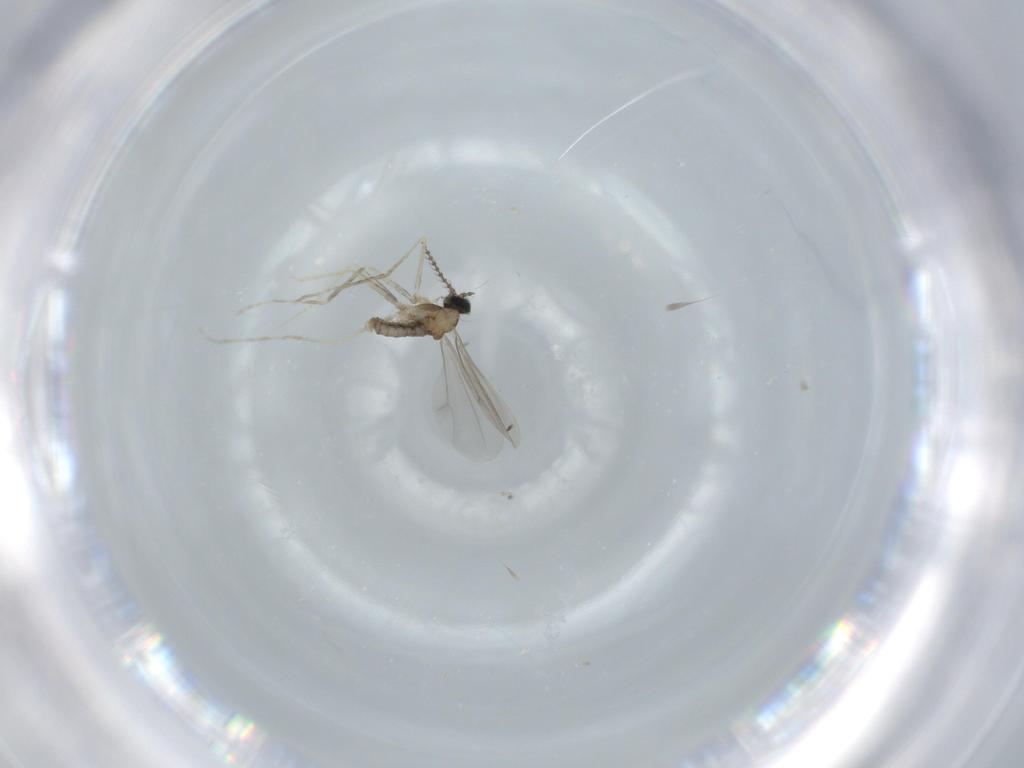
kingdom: Animalia
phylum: Arthropoda
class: Insecta
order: Diptera
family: Cecidomyiidae
